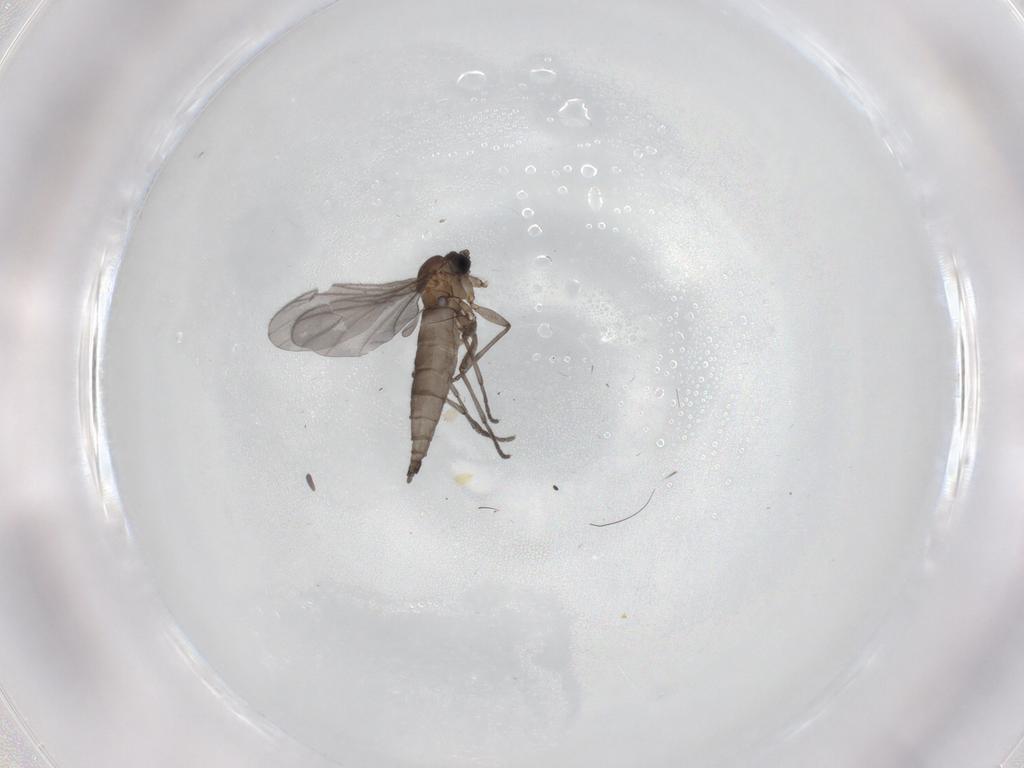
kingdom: Animalia
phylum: Arthropoda
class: Insecta
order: Diptera
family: Sciaridae
